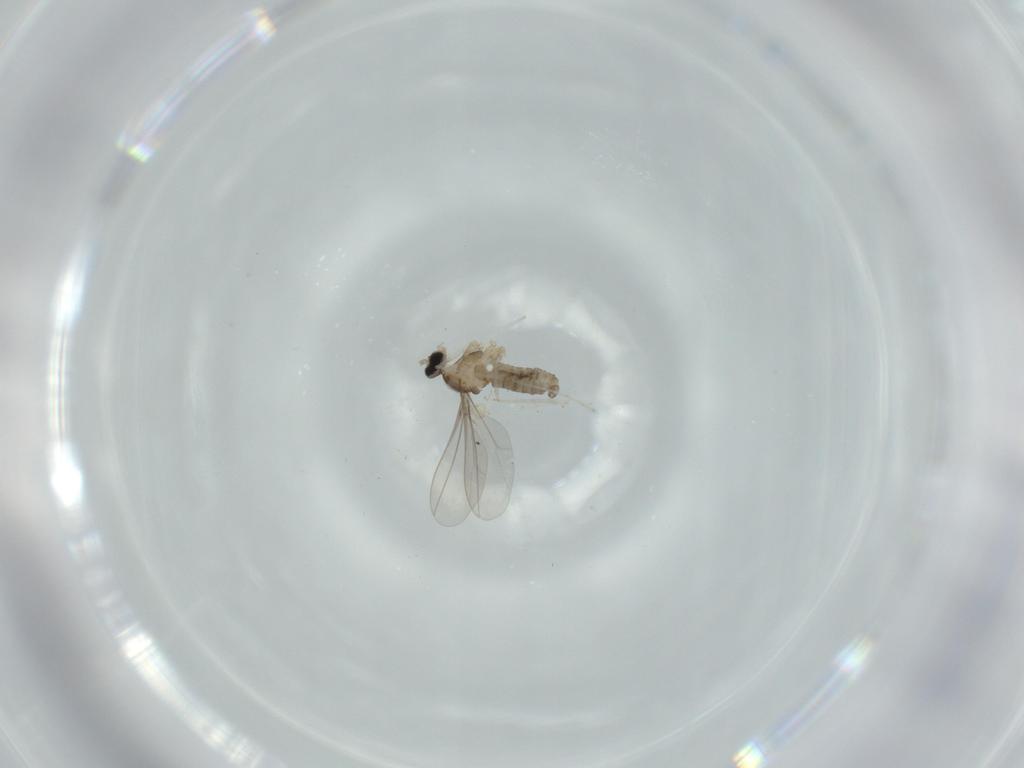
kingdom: Animalia
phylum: Arthropoda
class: Insecta
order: Diptera
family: Cecidomyiidae
